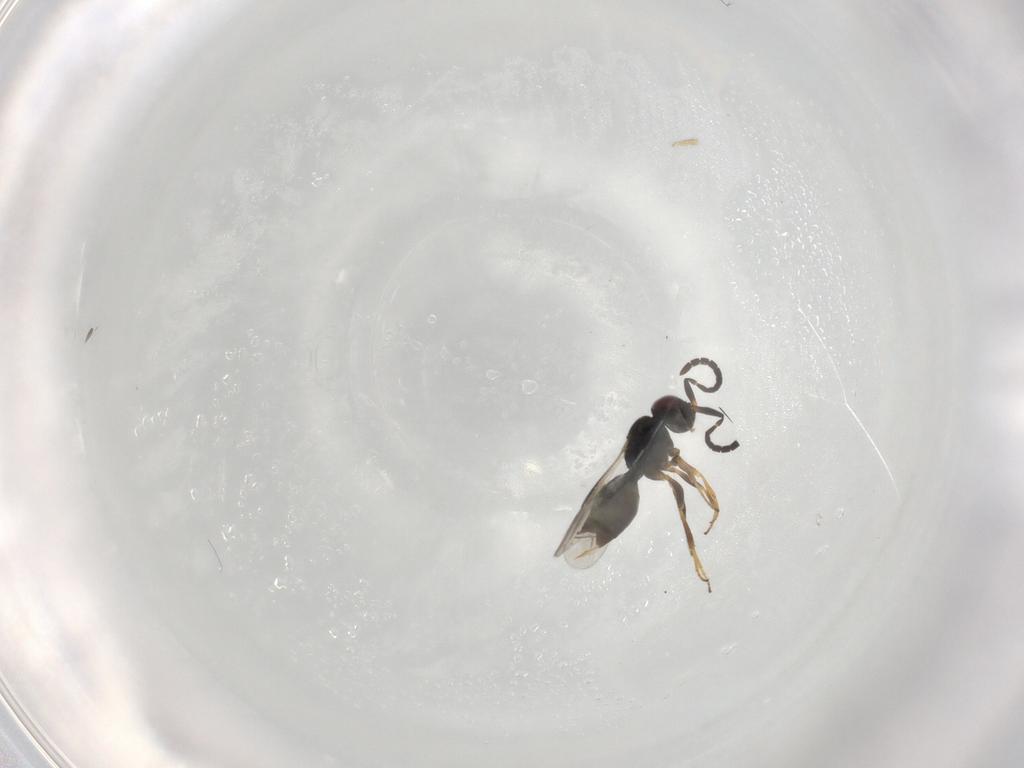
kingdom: Animalia
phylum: Arthropoda
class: Insecta
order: Hymenoptera
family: Megaspilidae
